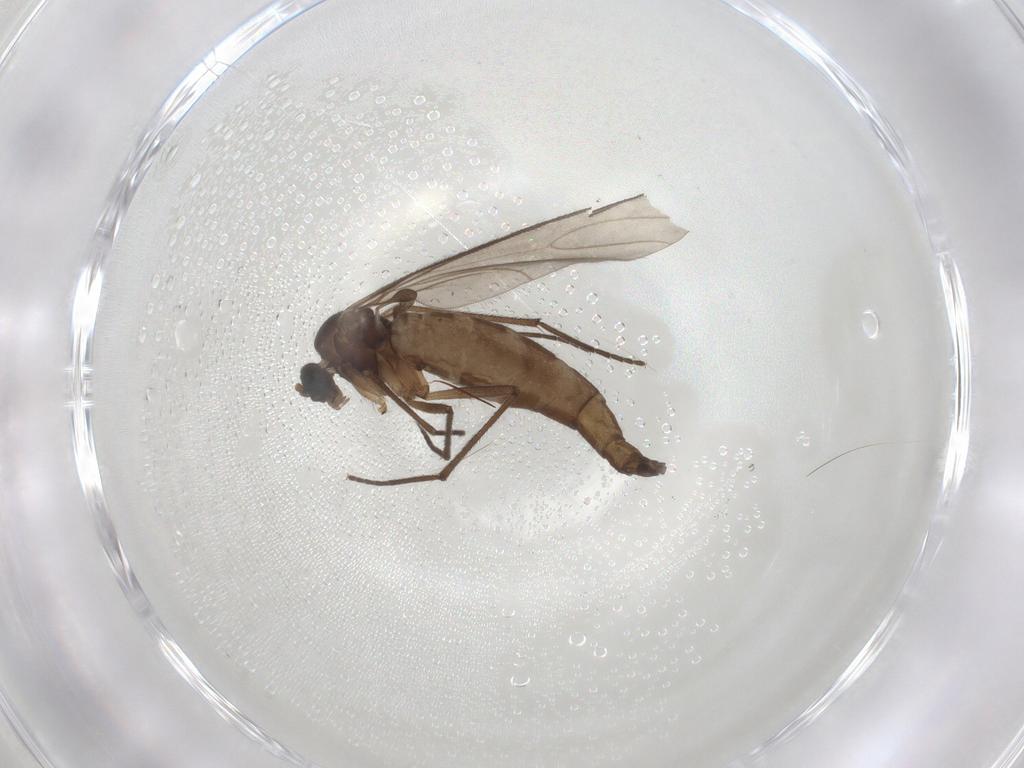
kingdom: Animalia
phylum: Arthropoda
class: Insecta
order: Diptera
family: Sciaridae
